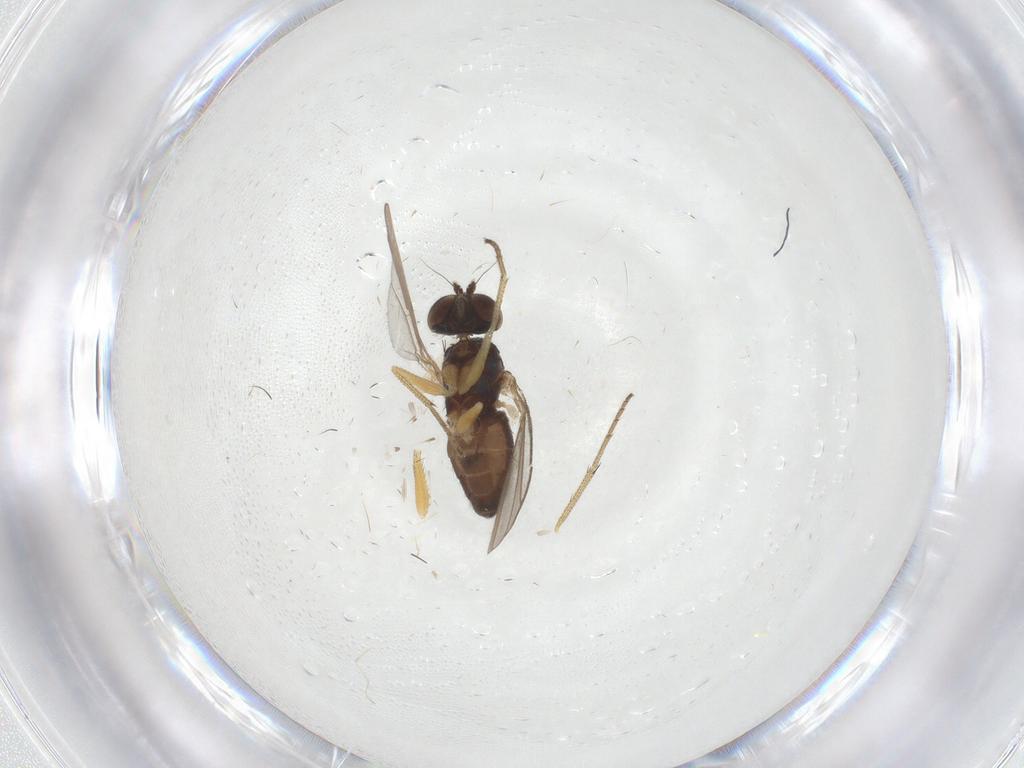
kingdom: Animalia
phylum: Arthropoda
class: Insecta
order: Diptera
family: Dolichopodidae
